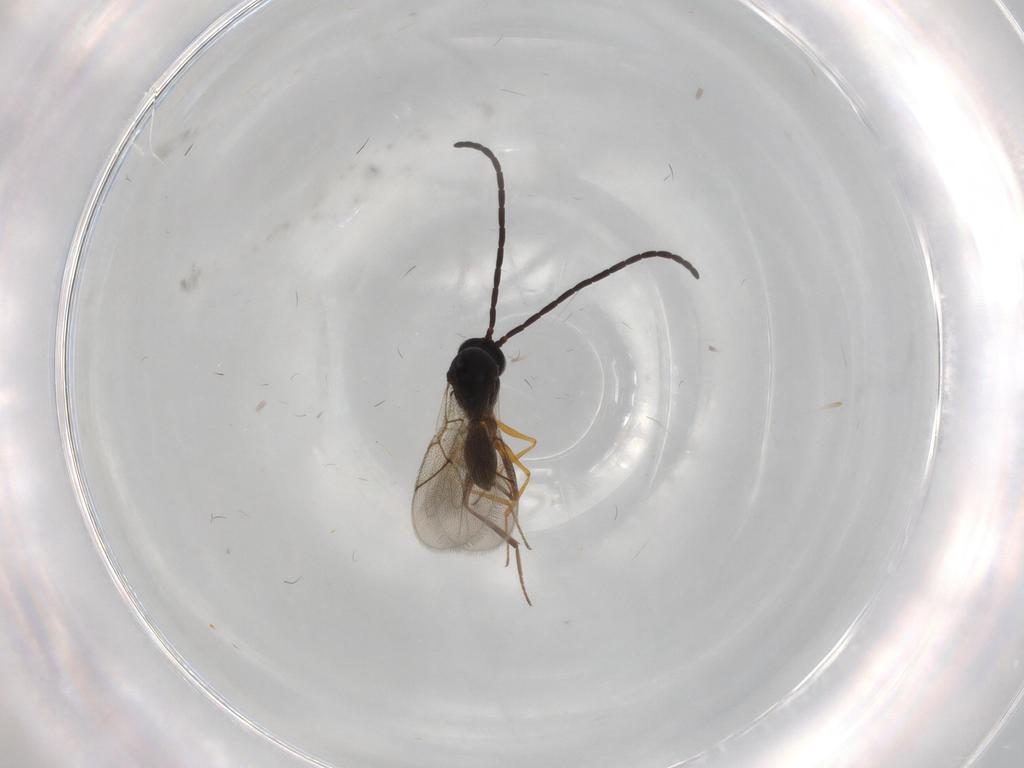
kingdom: Animalia
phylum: Arthropoda
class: Insecta
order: Hymenoptera
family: Figitidae
